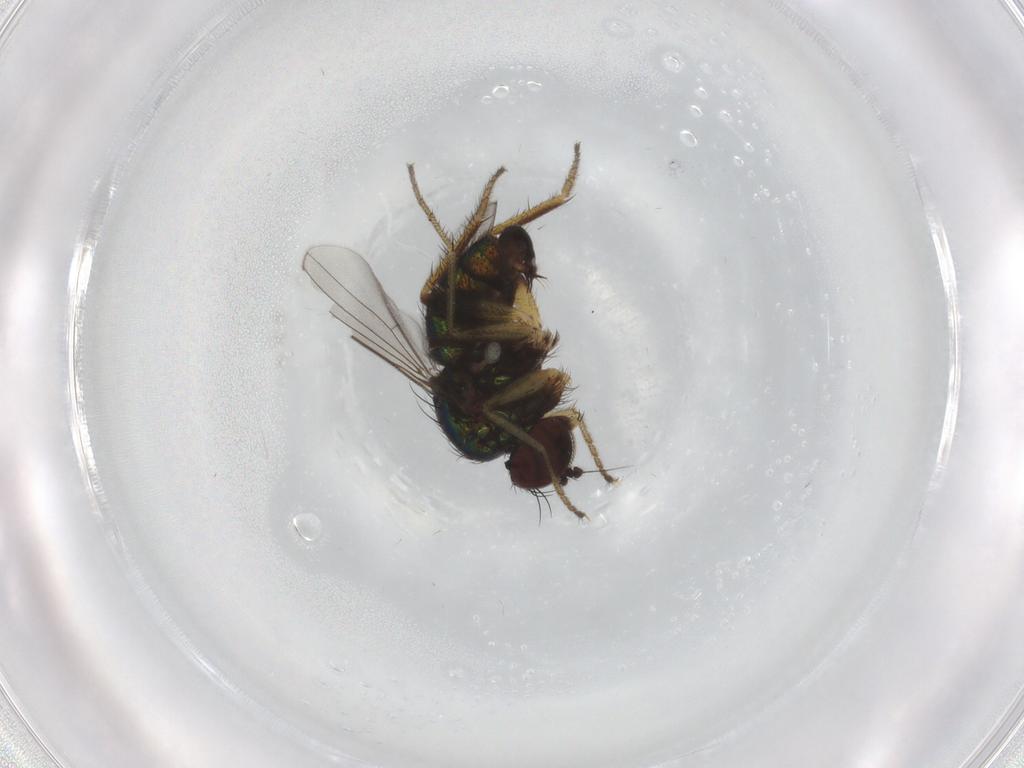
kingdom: Animalia
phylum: Arthropoda
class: Insecta
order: Diptera
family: Dolichopodidae
